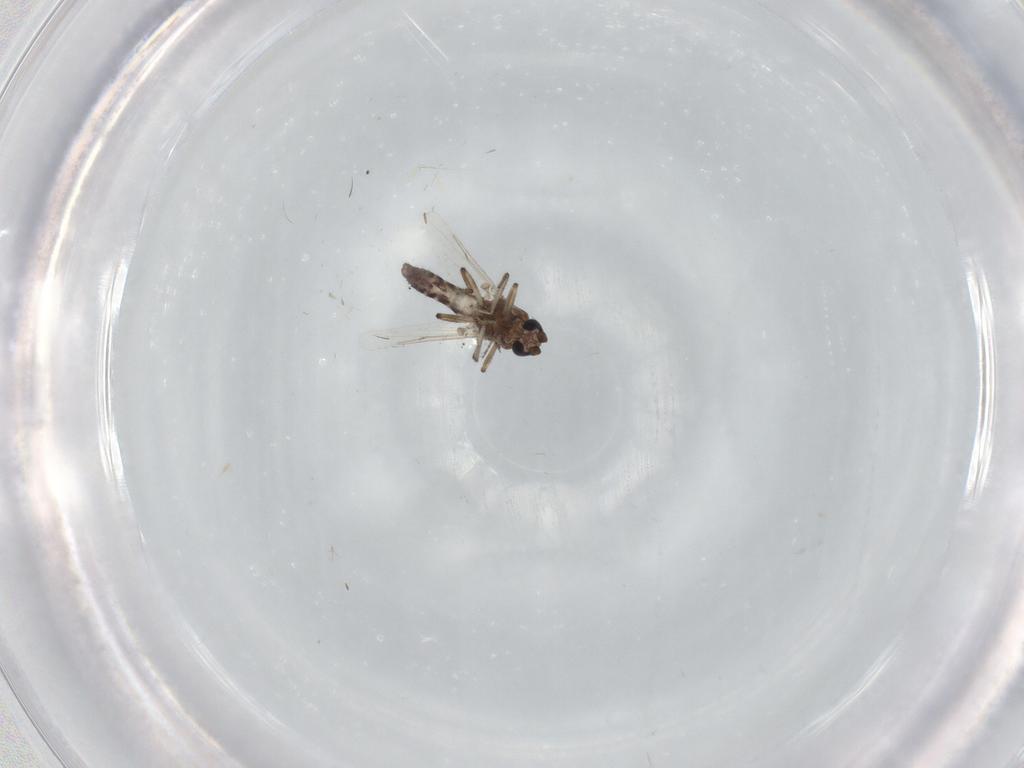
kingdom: Animalia
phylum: Arthropoda
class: Insecta
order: Diptera
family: Ceratopogonidae
